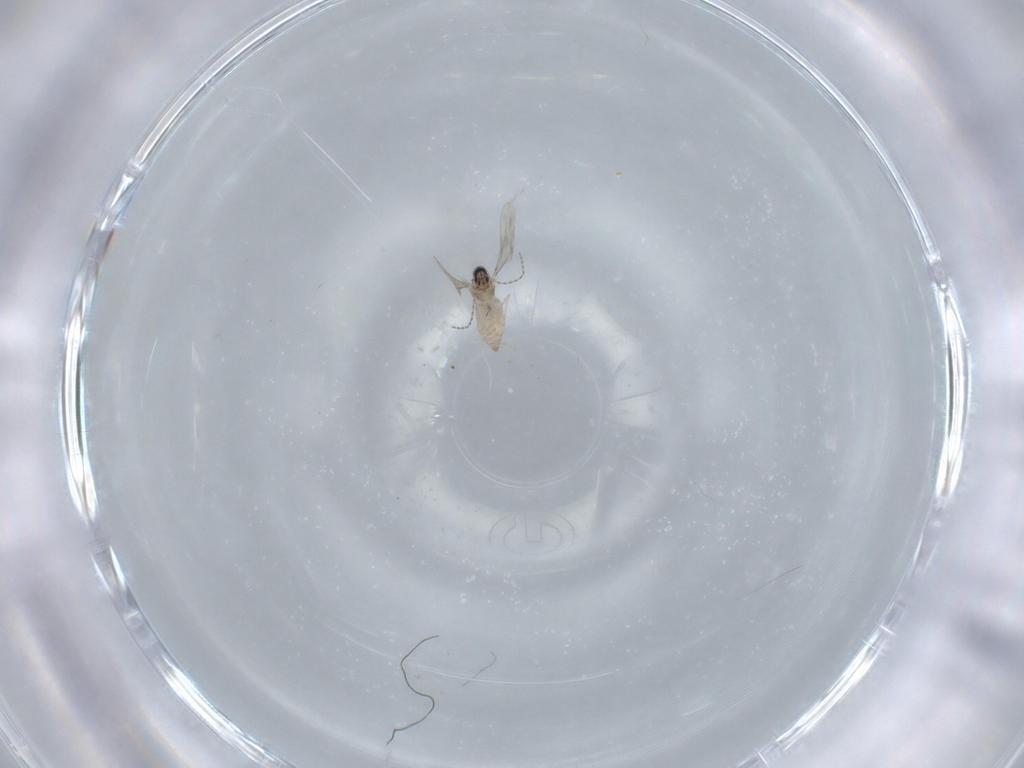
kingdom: Animalia
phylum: Arthropoda
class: Insecta
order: Diptera
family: Cecidomyiidae
